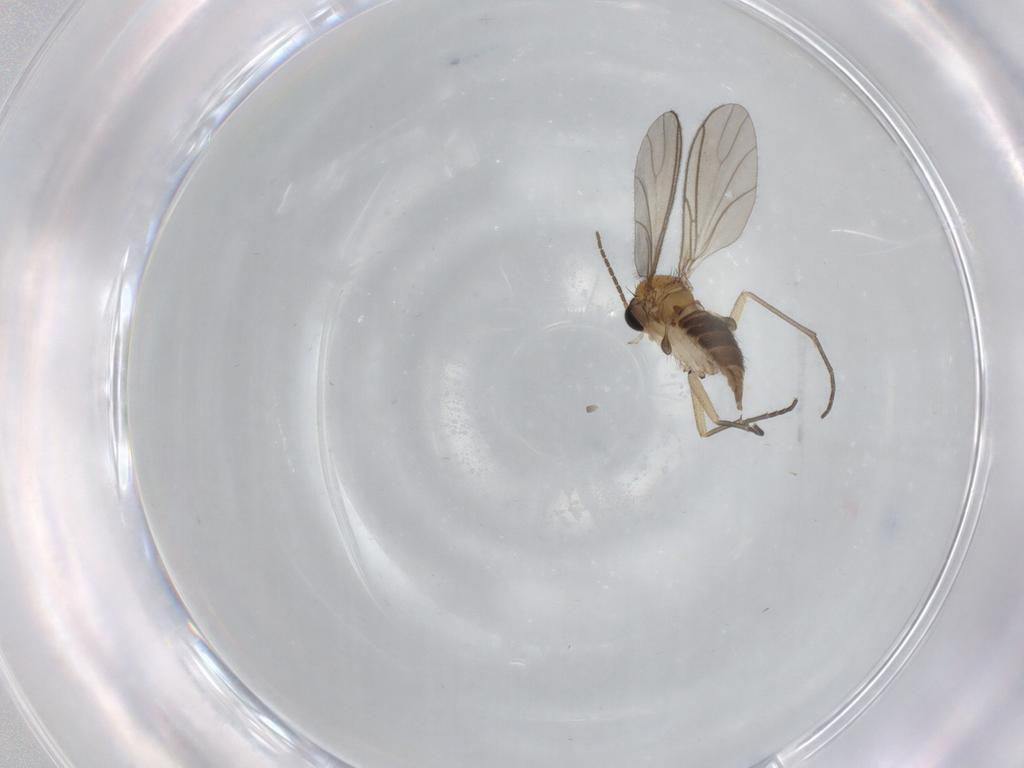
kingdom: Animalia
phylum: Arthropoda
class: Insecta
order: Diptera
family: Sciaridae
